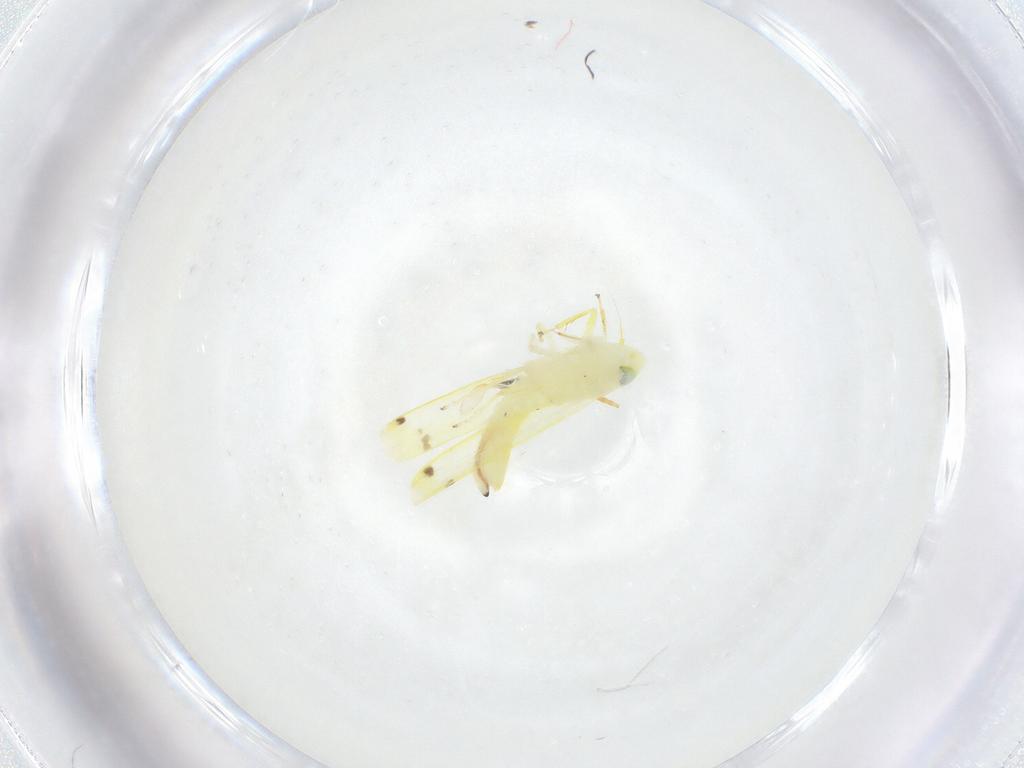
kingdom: Animalia
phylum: Arthropoda
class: Insecta
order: Hemiptera
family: Cicadellidae
